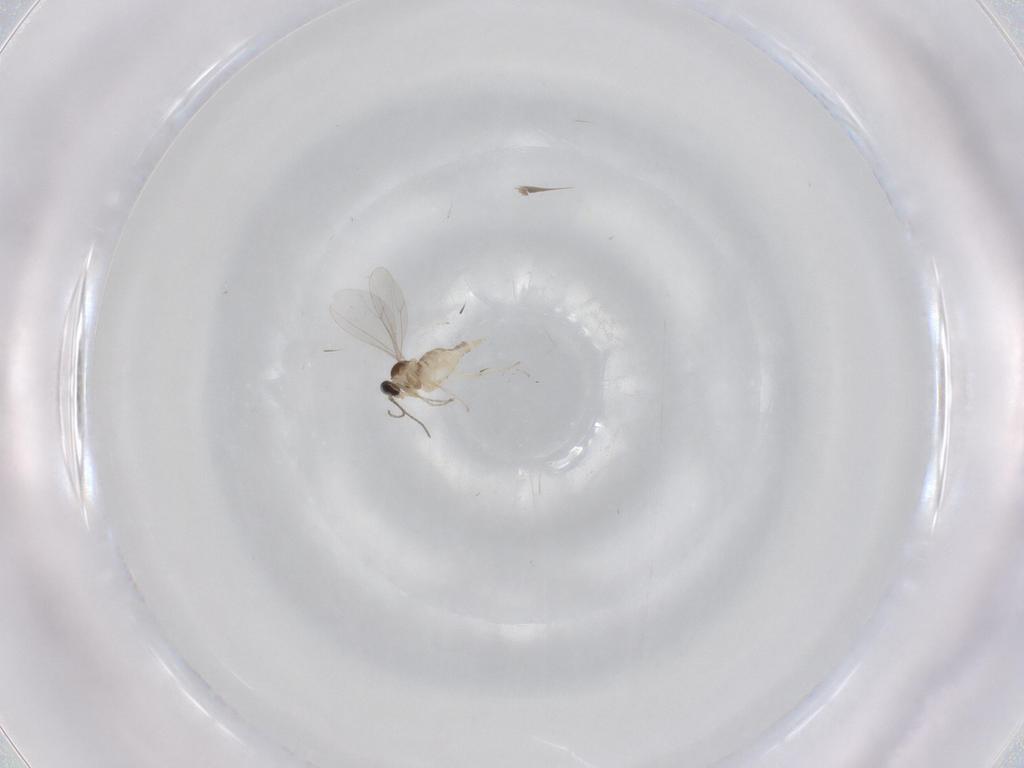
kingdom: Animalia
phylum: Arthropoda
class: Insecta
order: Diptera
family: Cecidomyiidae
